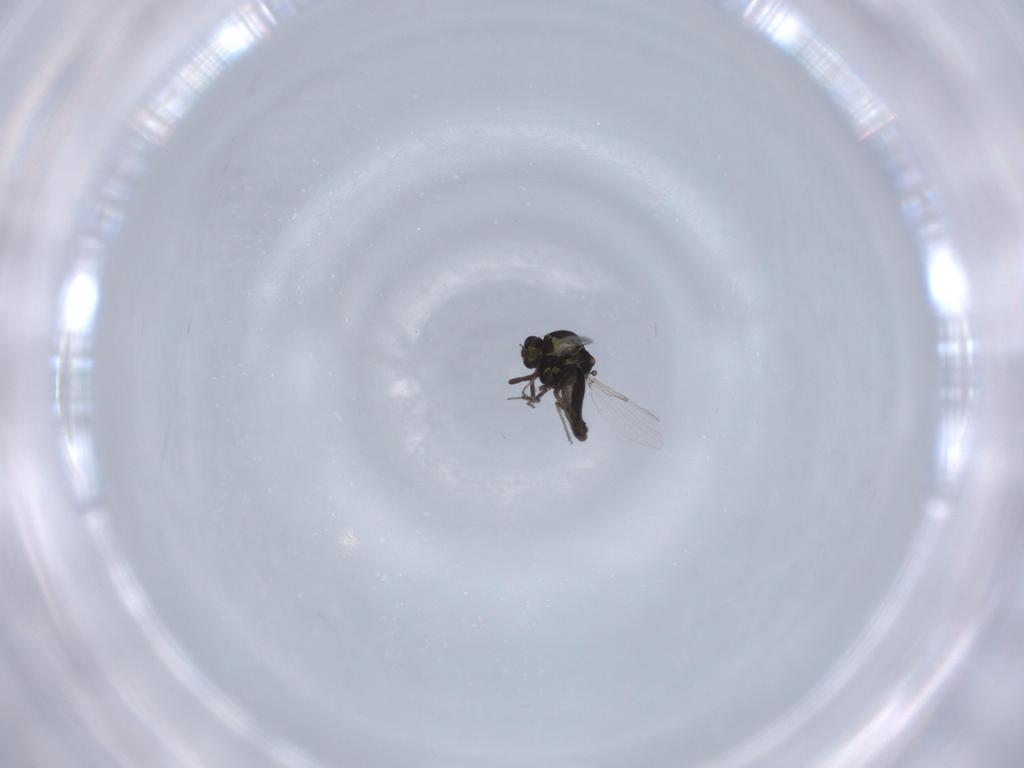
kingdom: Animalia
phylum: Arthropoda
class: Insecta
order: Diptera
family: Ceratopogonidae
